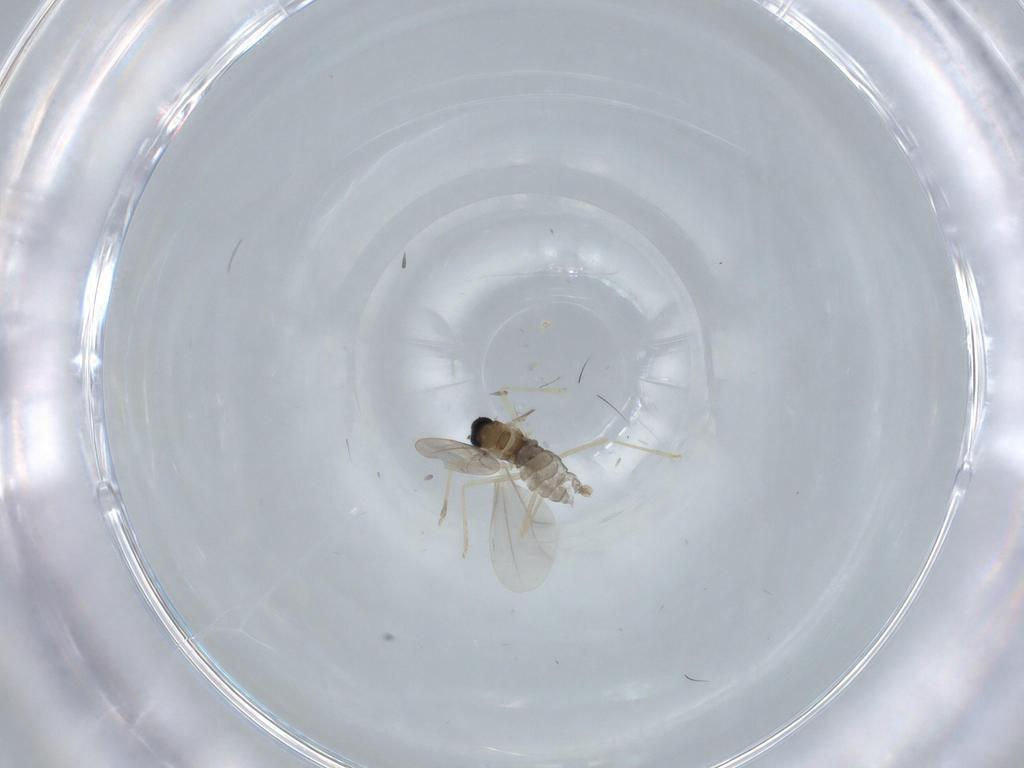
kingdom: Animalia
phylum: Arthropoda
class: Insecta
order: Diptera
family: Cecidomyiidae
